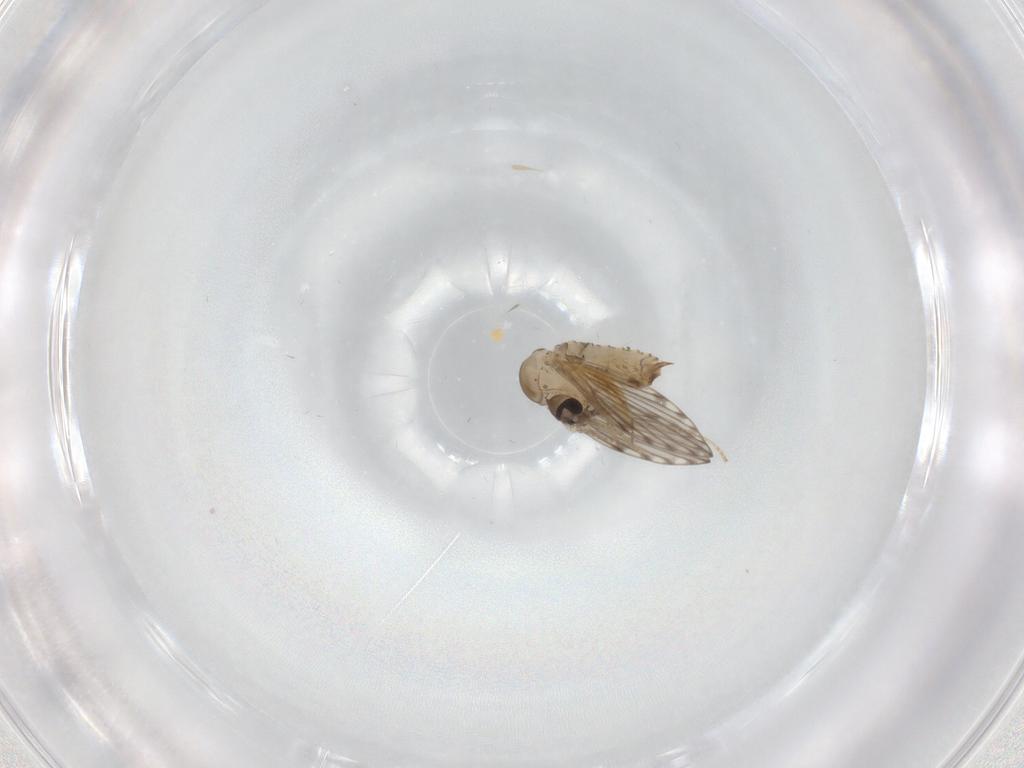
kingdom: Animalia
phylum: Arthropoda
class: Insecta
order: Diptera
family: Psychodidae
